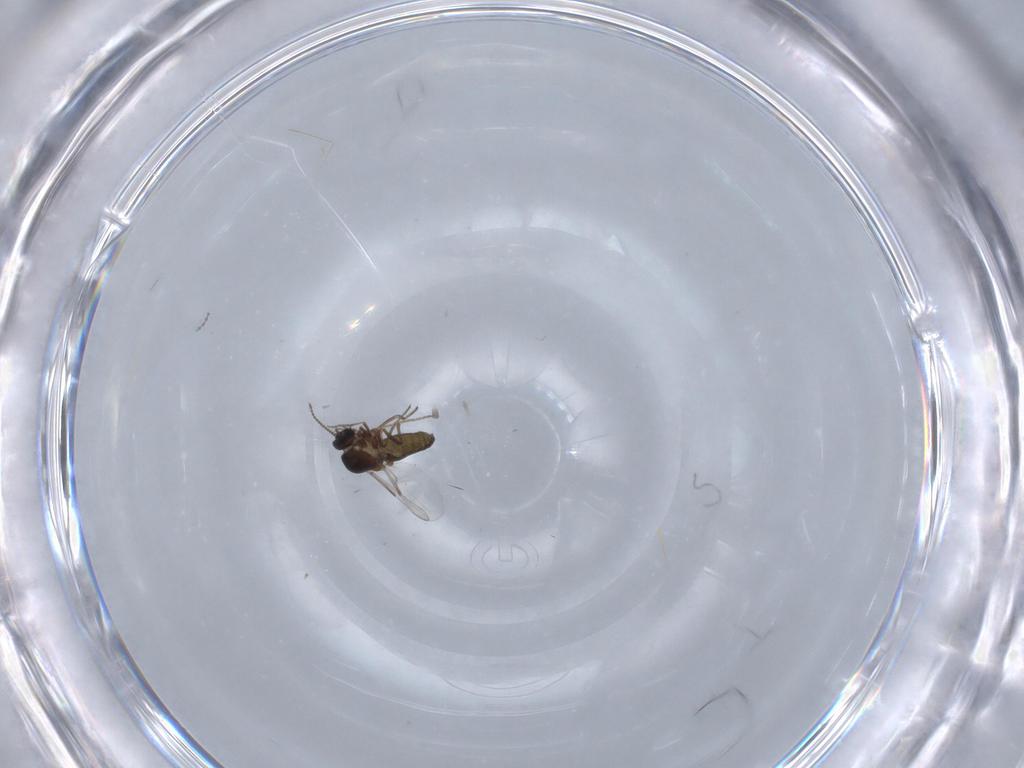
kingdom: Animalia
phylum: Arthropoda
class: Insecta
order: Diptera
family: Ceratopogonidae
